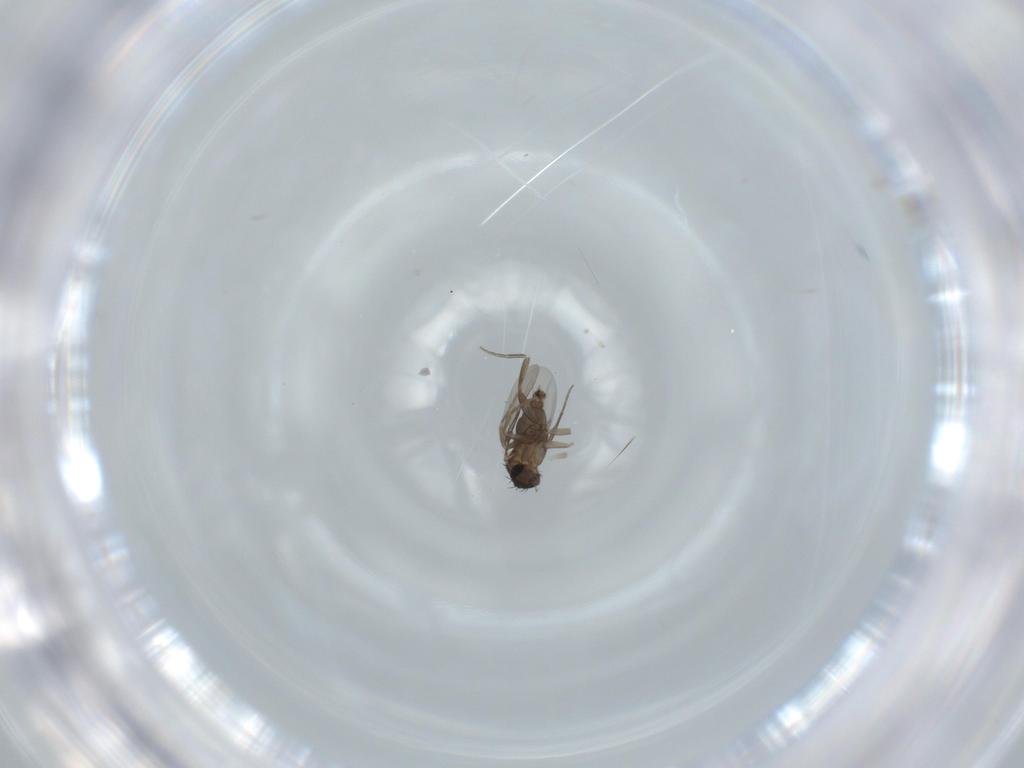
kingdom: Animalia
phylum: Arthropoda
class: Insecta
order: Diptera
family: Milichiidae
